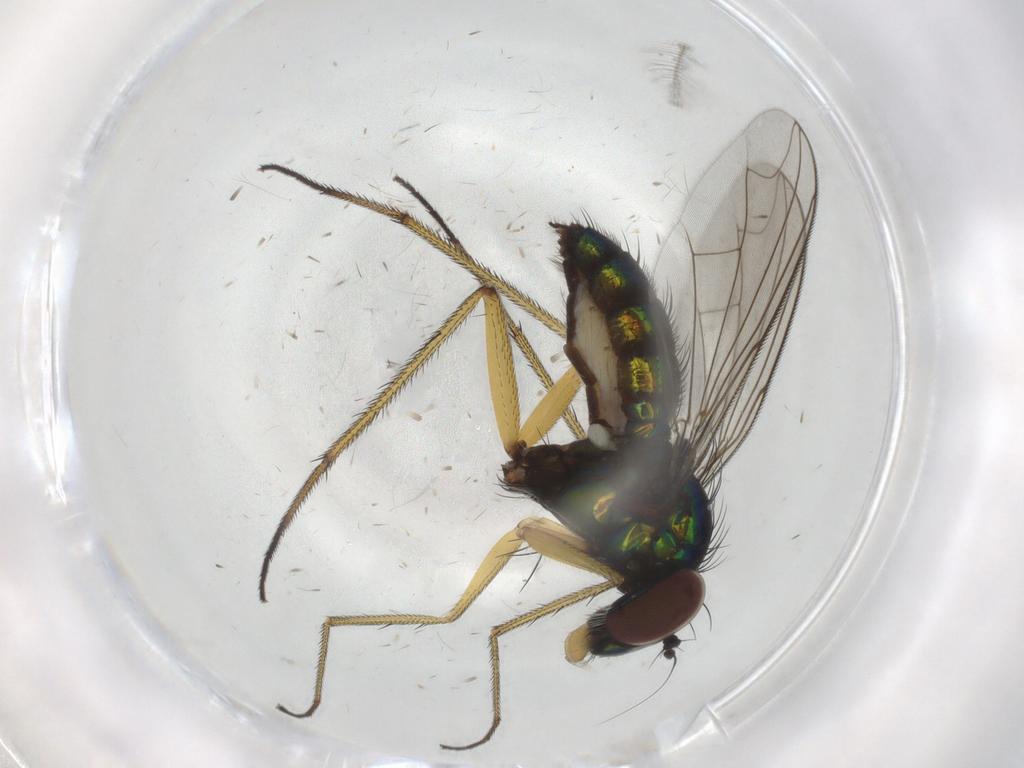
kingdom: Animalia
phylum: Arthropoda
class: Insecta
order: Diptera
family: Dolichopodidae
